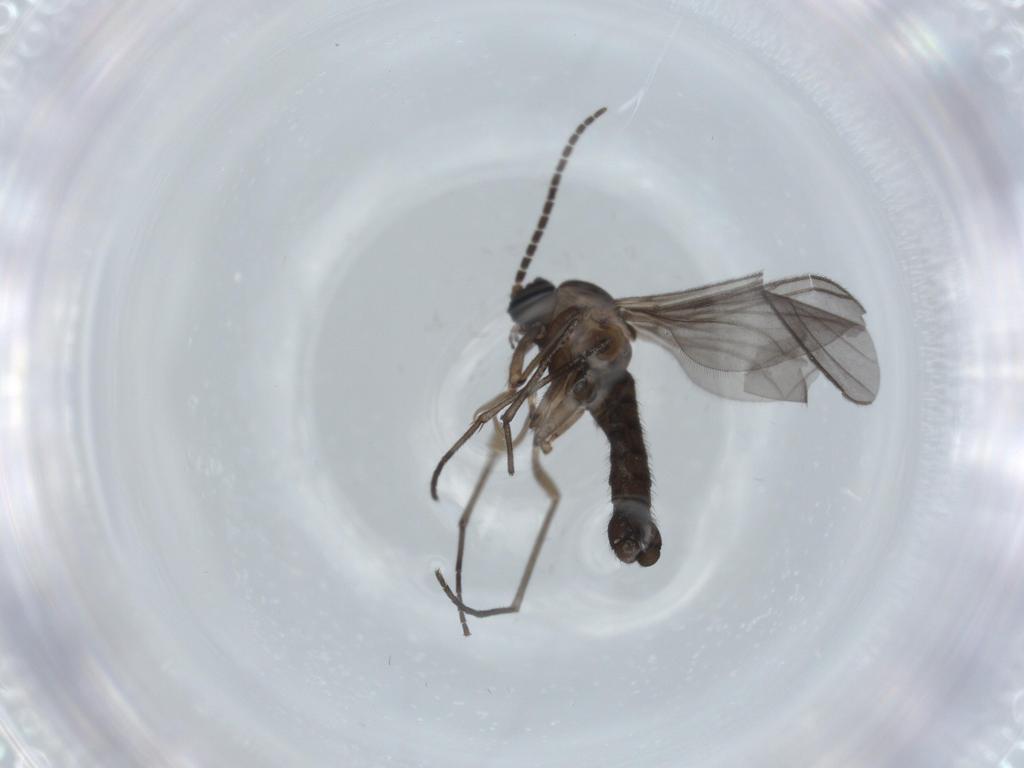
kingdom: Animalia
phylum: Arthropoda
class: Insecta
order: Diptera
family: Sciaridae
